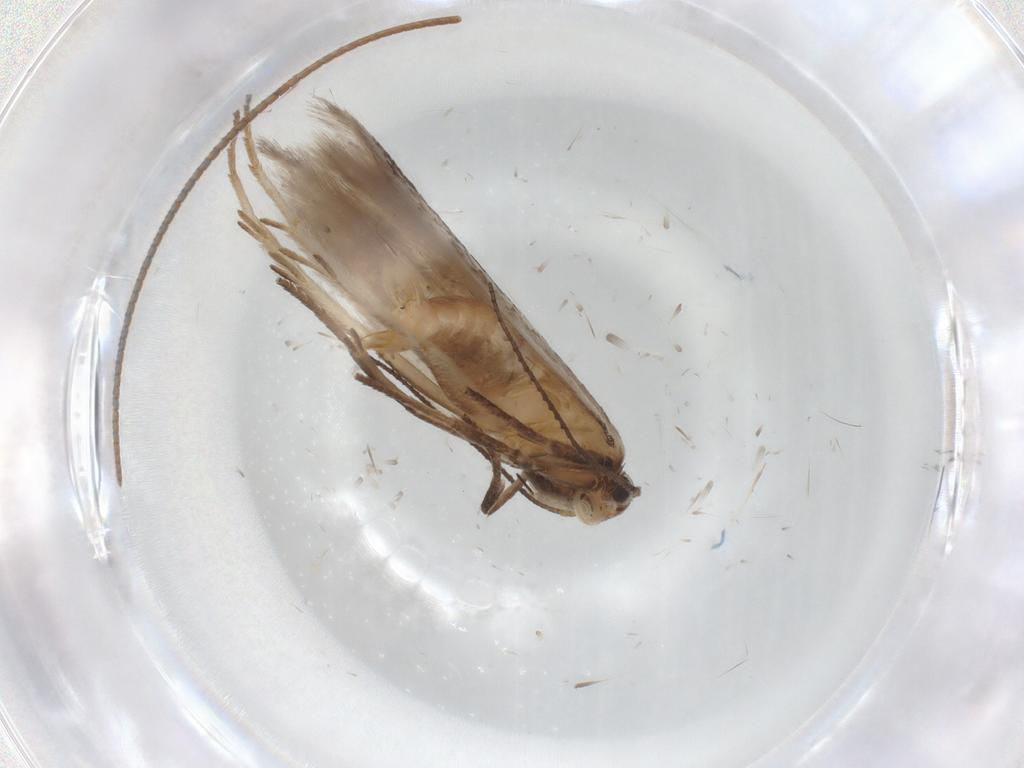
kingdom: Animalia
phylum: Arthropoda
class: Insecta
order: Lepidoptera
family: Gelechiidae
